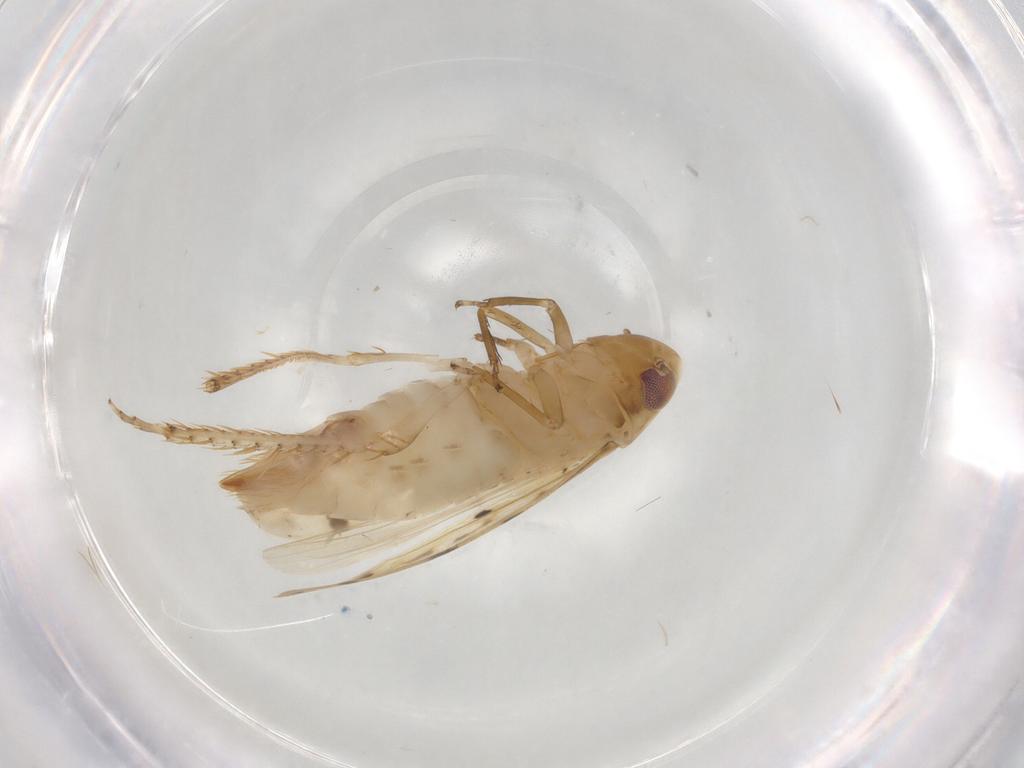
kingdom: Animalia
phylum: Arthropoda
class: Insecta
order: Hemiptera
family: Cicadellidae
